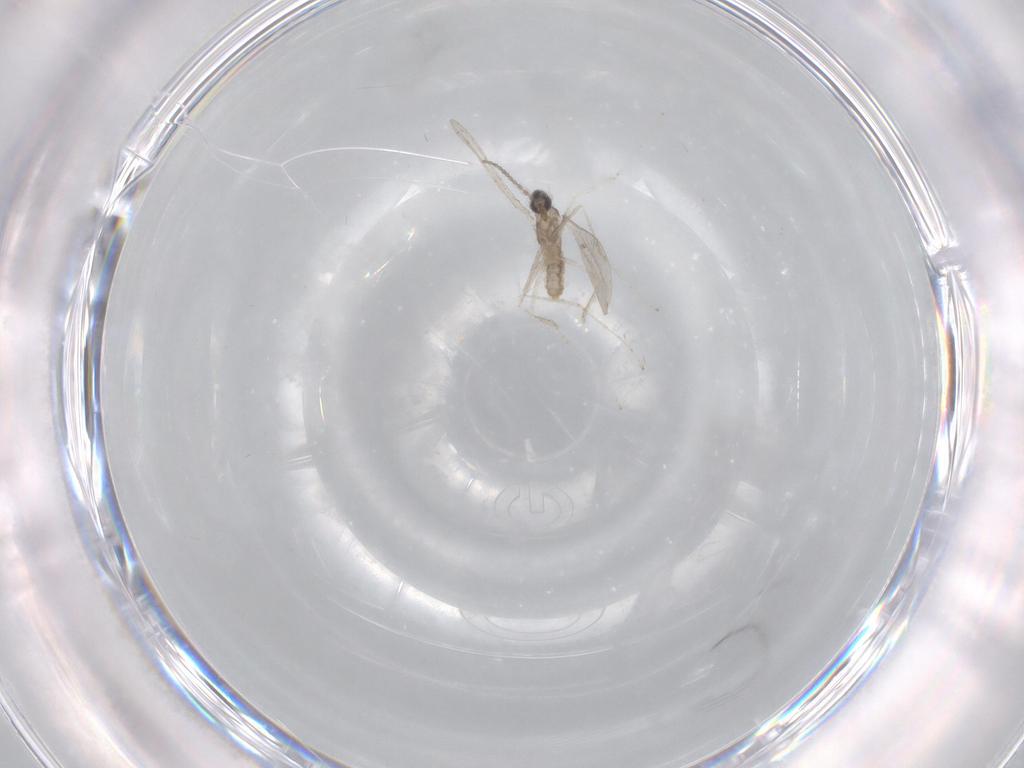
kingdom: Animalia
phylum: Arthropoda
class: Insecta
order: Diptera
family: Cecidomyiidae
